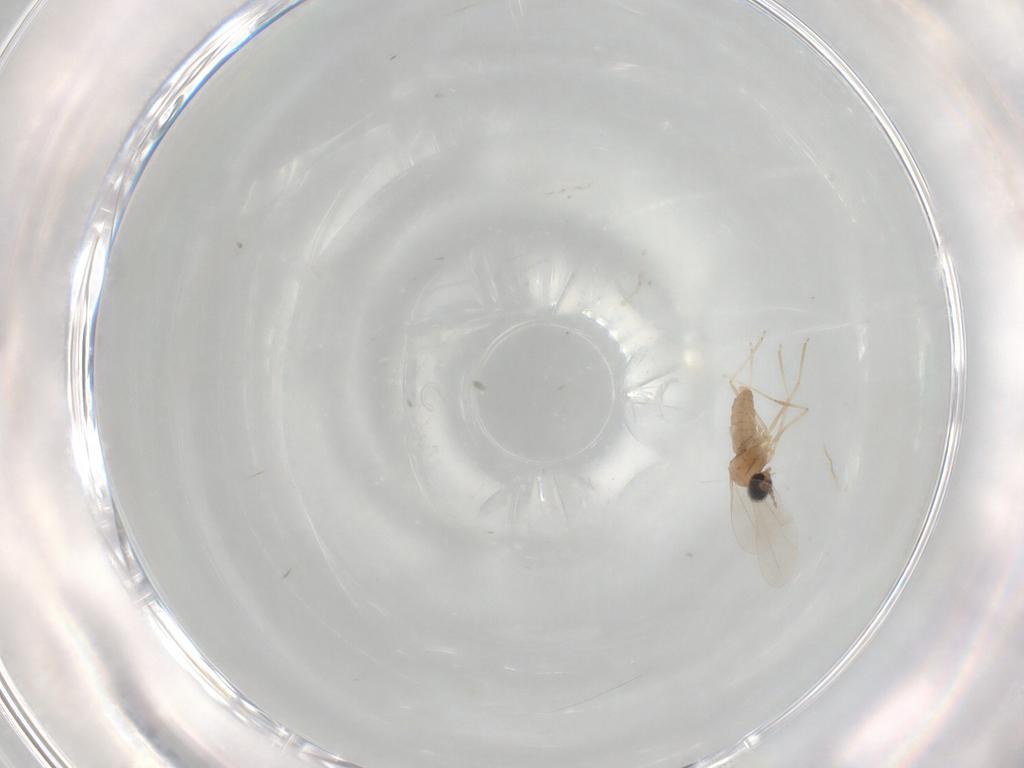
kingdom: Animalia
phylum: Arthropoda
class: Insecta
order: Diptera
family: Cecidomyiidae
